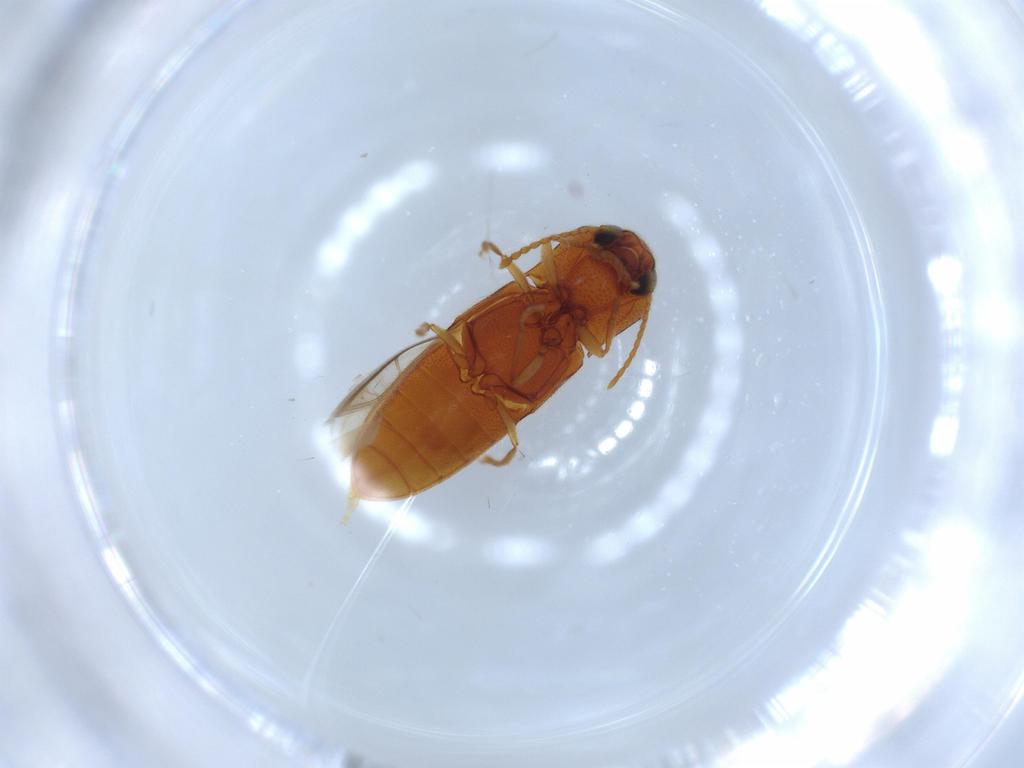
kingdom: Animalia
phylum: Arthropoda
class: Insecta
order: Coleoptera
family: Elateridae
